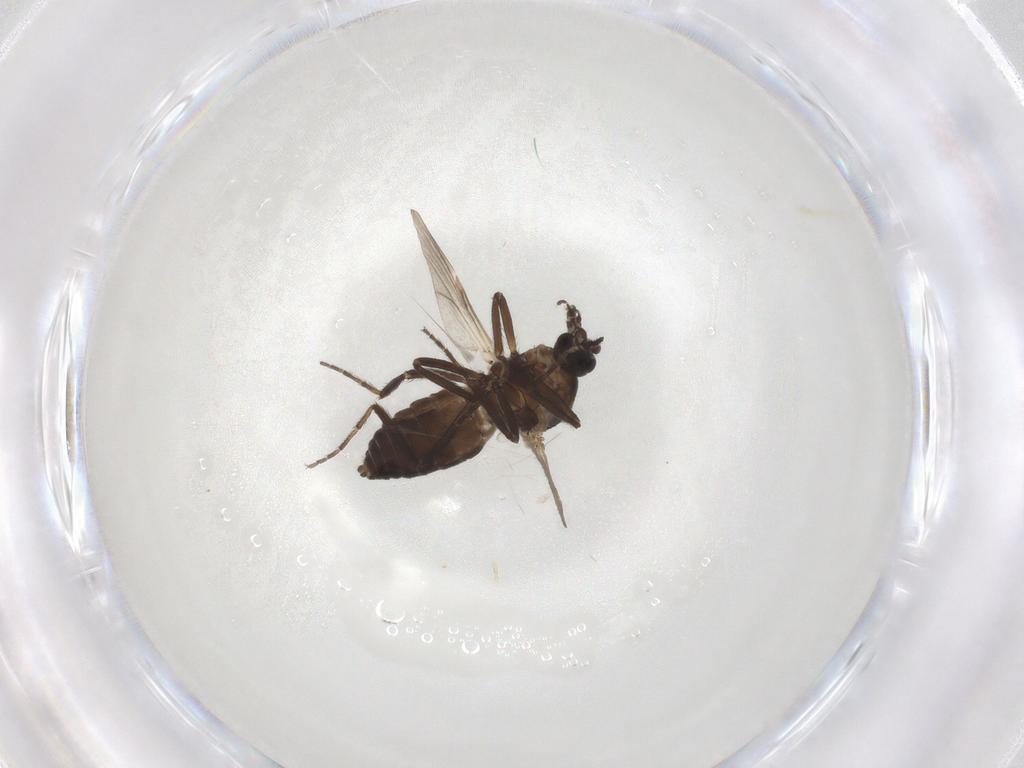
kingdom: Animalia
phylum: Arthropoda
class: Insecta
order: Diptera
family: Ceratopogonidae
